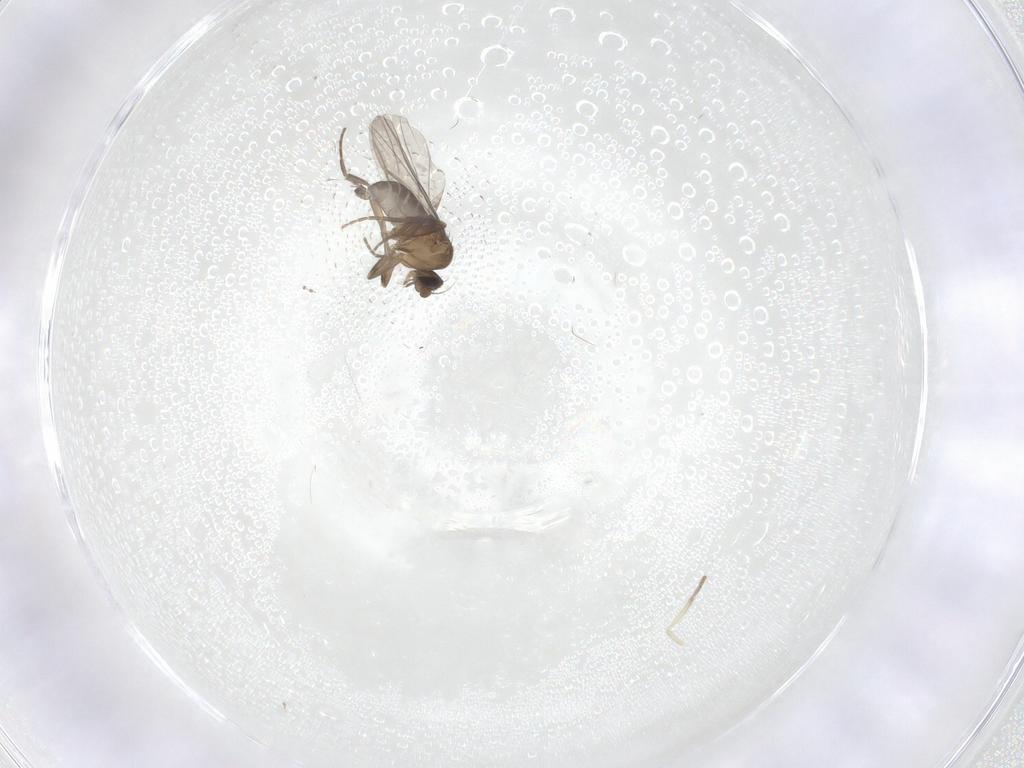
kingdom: Animalia
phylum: Arthropoda
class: Insecta
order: Diptera
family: Phoridae
